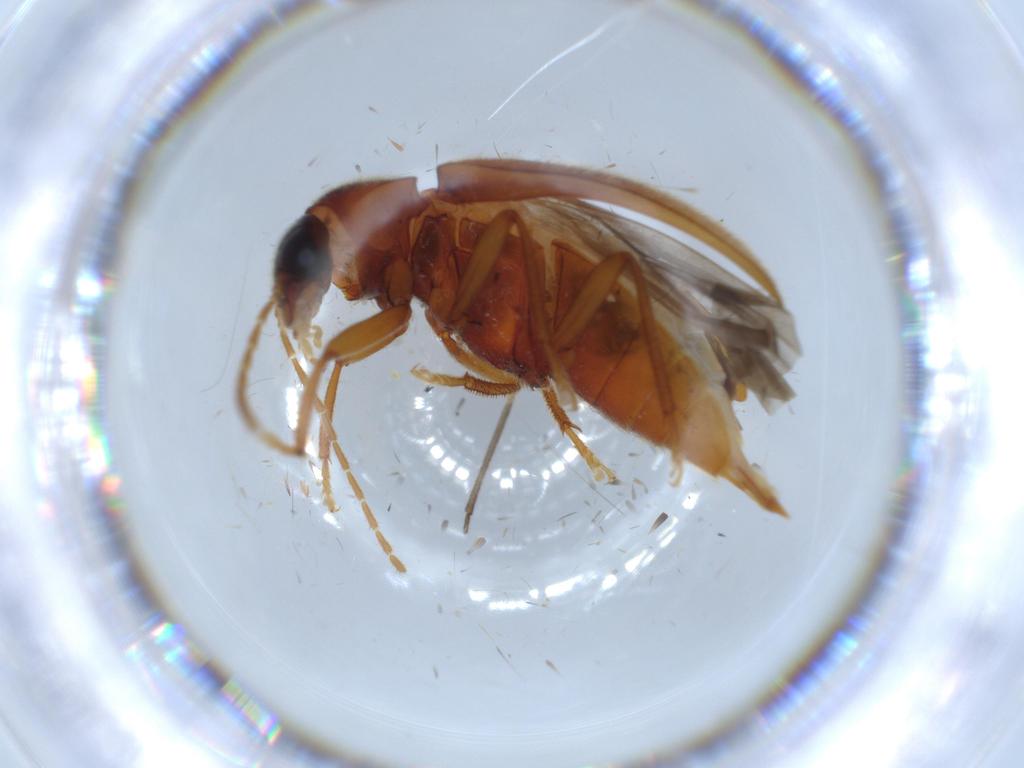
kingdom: Animalia
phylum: Arthropoda
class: Insecta
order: Coleoptera
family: Ptilodactylidae
